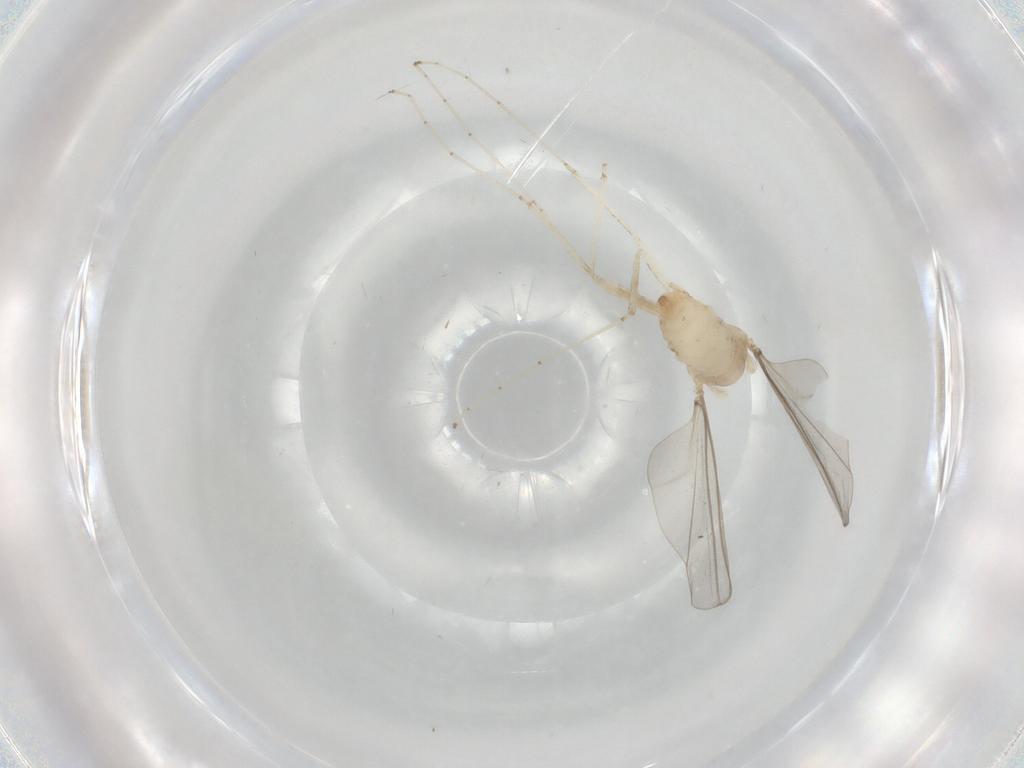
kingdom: Animalia
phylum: Arthropoda
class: Insecta
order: Diptera
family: Cecidomyiidae
